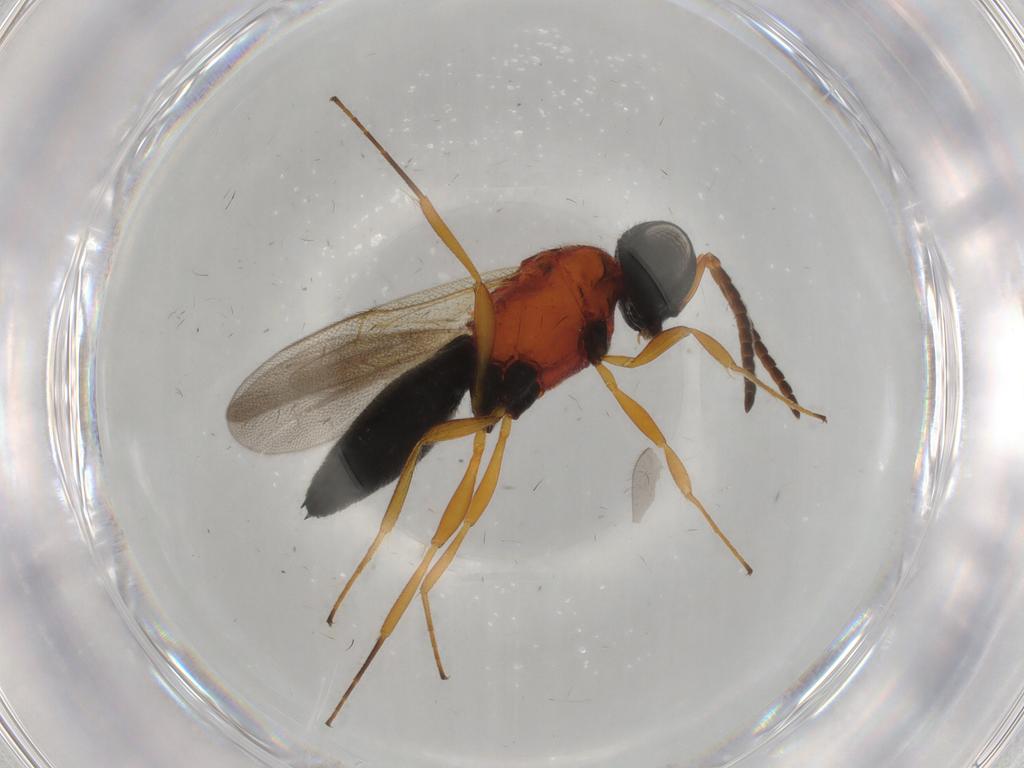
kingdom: Animalia
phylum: Arthropoda
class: Insecta
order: Hymenoptera
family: Scelionidae
